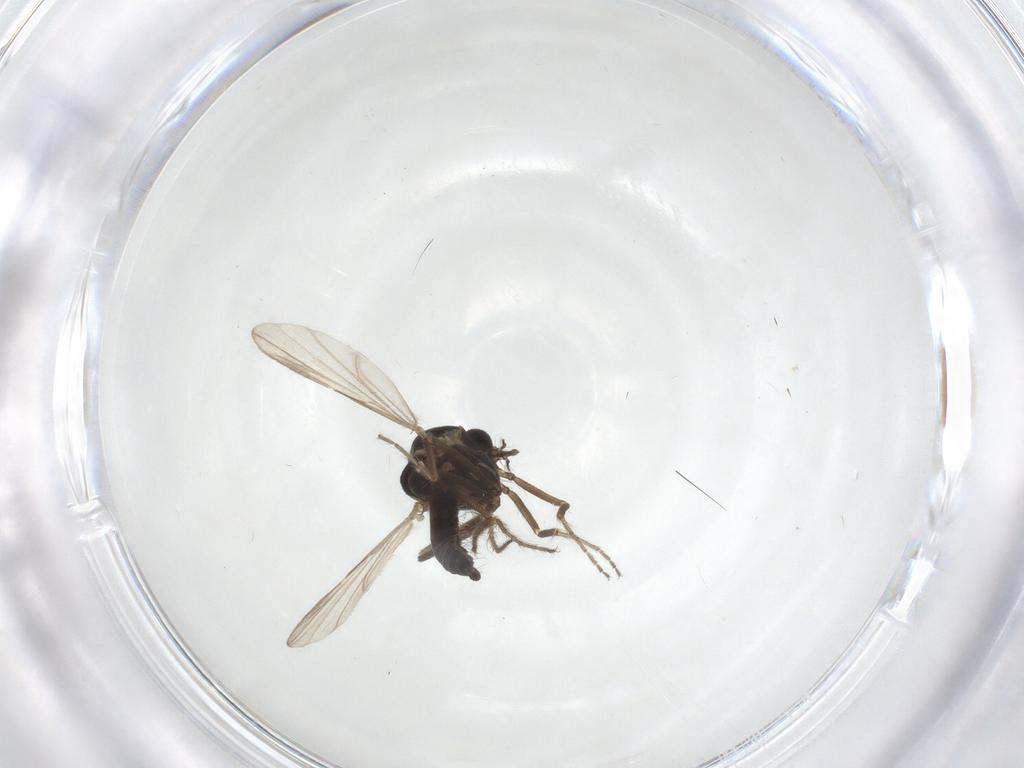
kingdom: Animalia
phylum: Arthropoda
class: Insecta
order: Diptera
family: Ceratopogonidae
